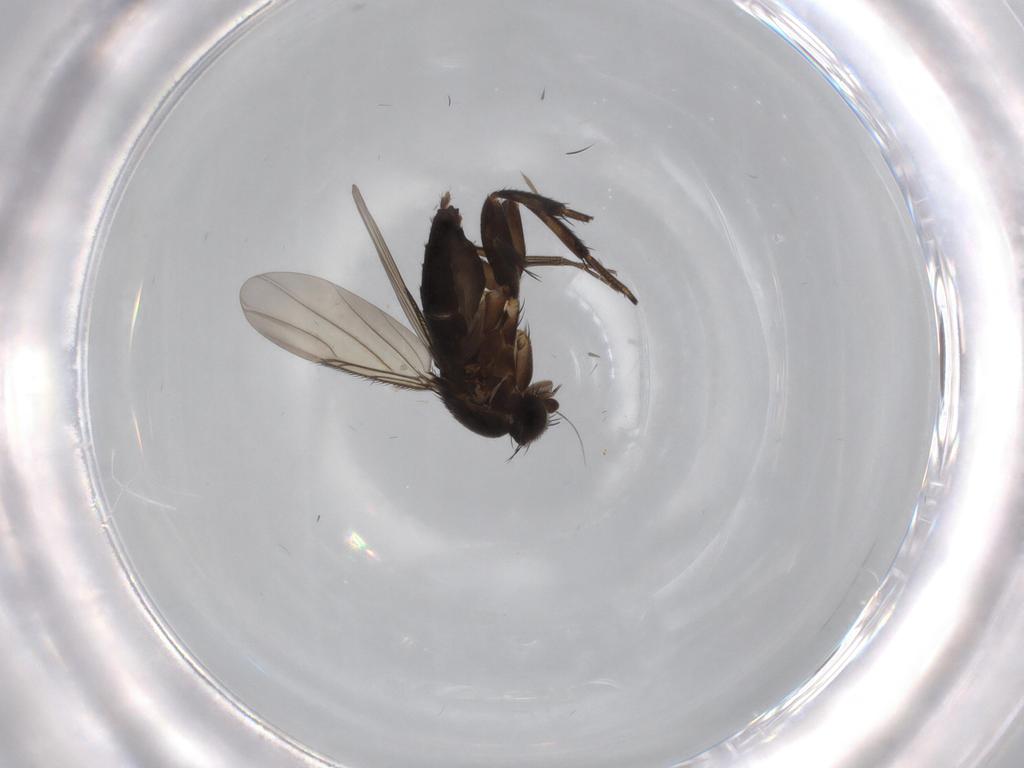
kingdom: Animalia
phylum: Arthropoda
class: Insecta
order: Diptera
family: Phoridae
